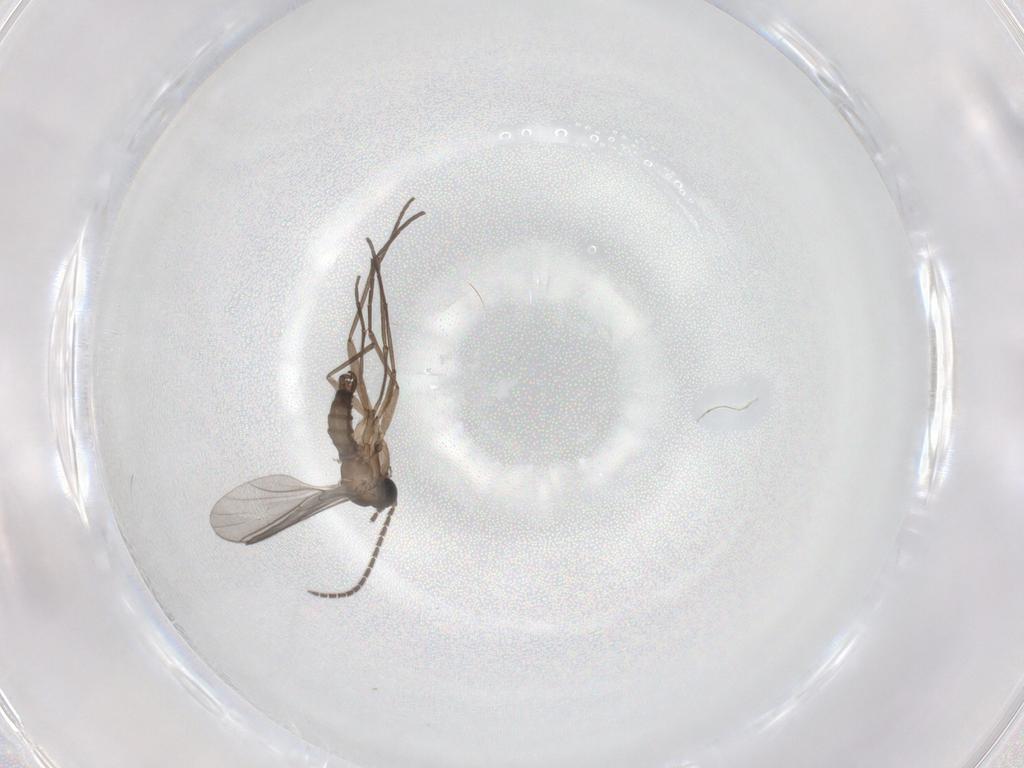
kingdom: Animalia
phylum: Arthropoda
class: Insecta
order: Diptera
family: Sciaridae
